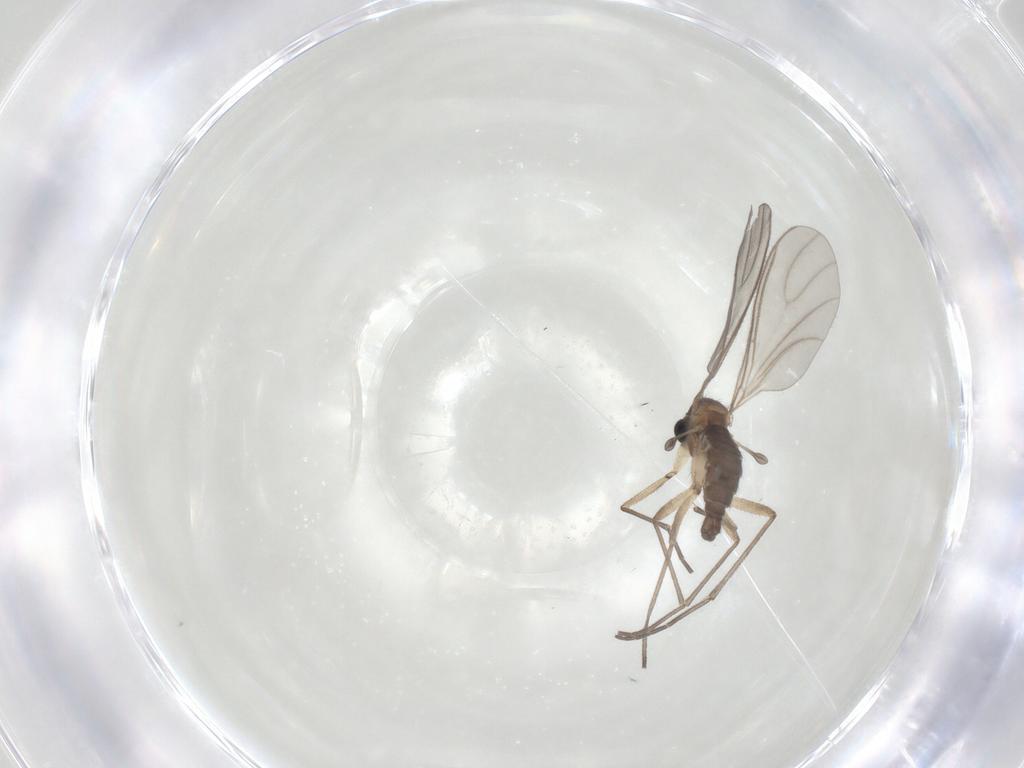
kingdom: Animalia
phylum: Arthropoda
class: Insecta
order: Diptera
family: Sciaridae
